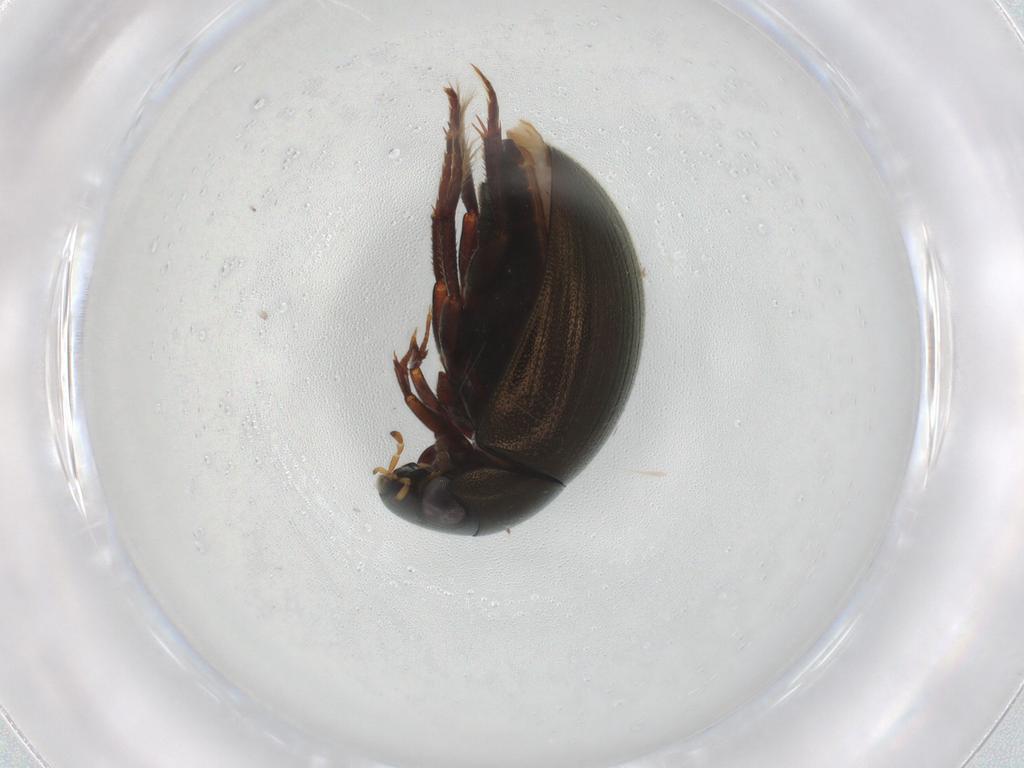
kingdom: Animalia
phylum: Arthropoda
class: Insecta
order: Coleoptera
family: Hydrophilidae
